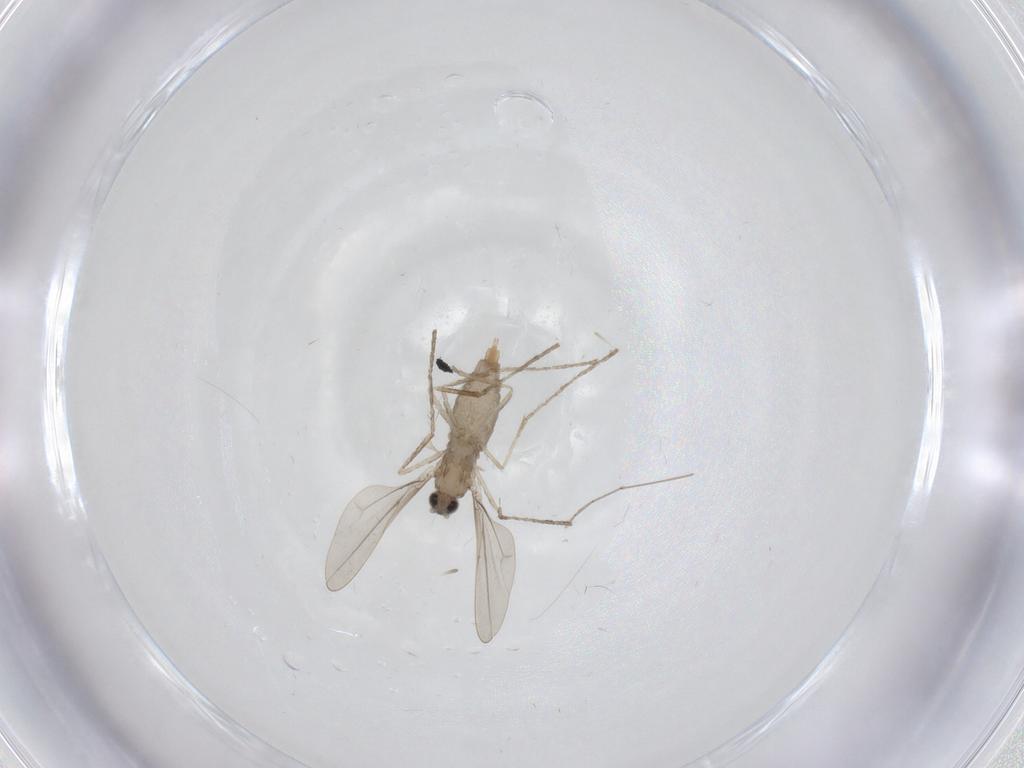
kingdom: Animalia
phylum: Arthropoda
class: Insecta
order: Diptera
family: Cecidomyiidae
